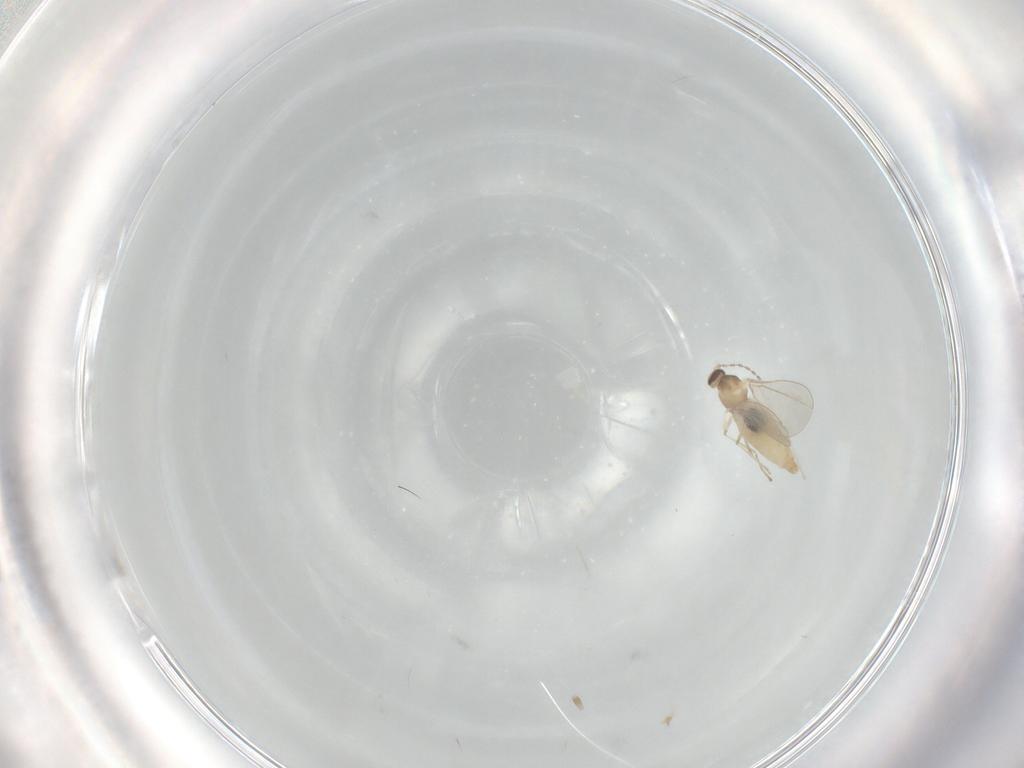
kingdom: Animalia
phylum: Arthropoda
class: Insecta
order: Diptera
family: Cecidomyiidae
